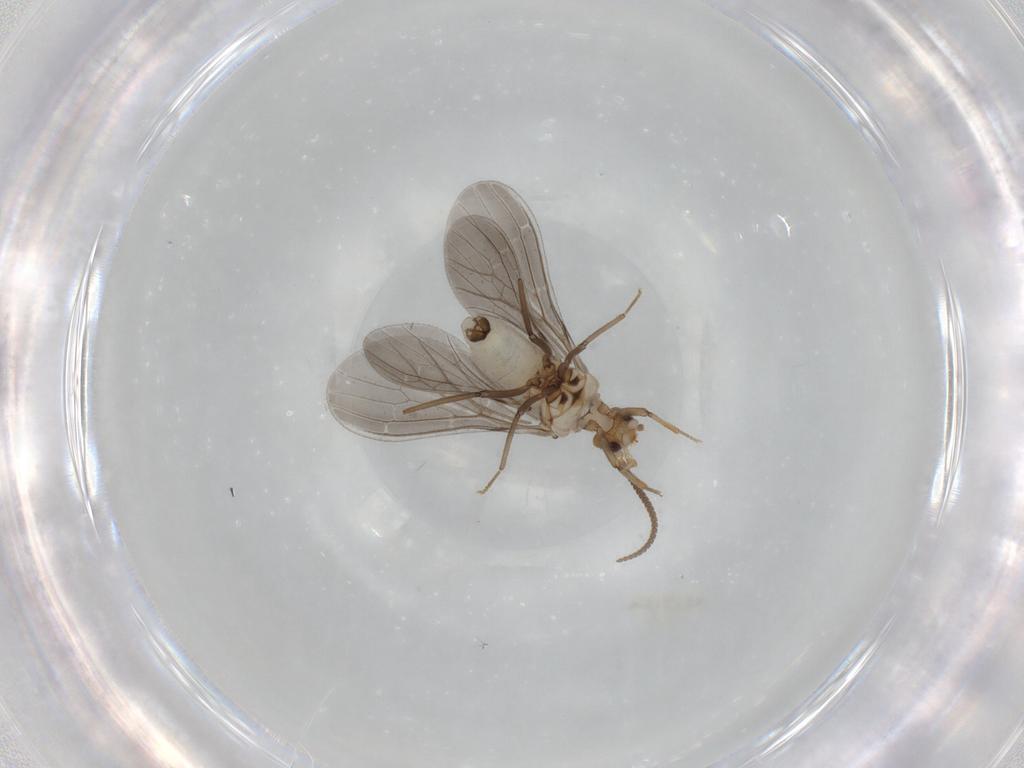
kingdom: Animalia
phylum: Arthropoda
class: Insecta
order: Neuroptera
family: Coniopterygidae
